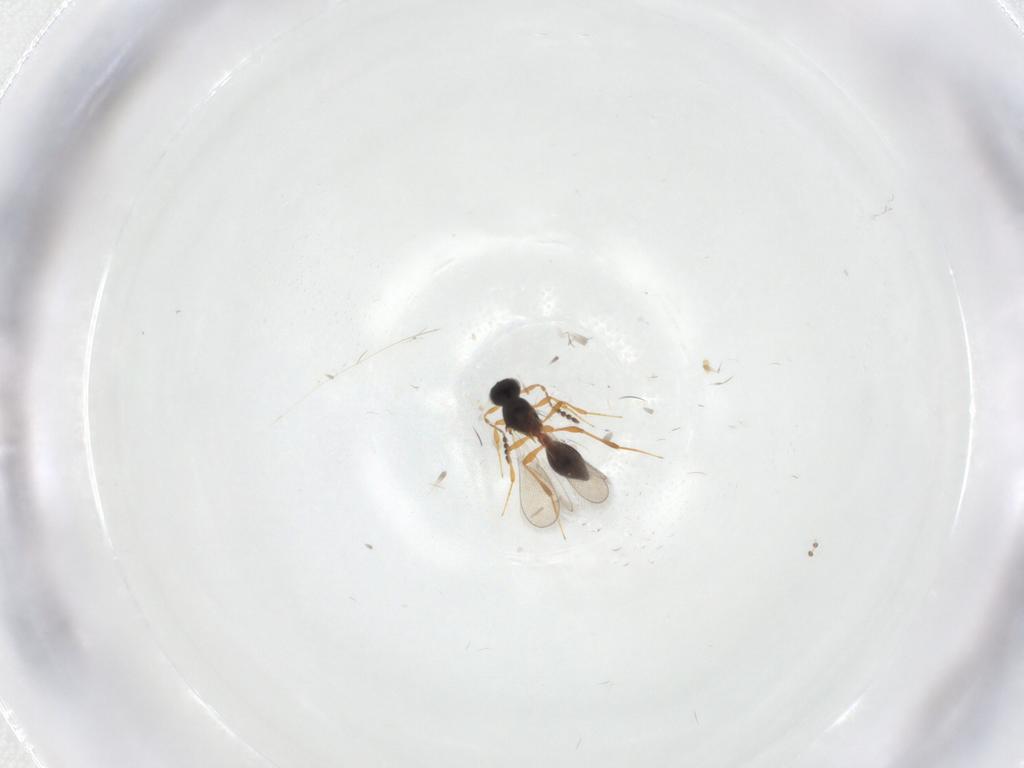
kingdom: Animalia
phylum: Arthropoda
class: Insecta
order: Hymenoptera
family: Platygastridae
